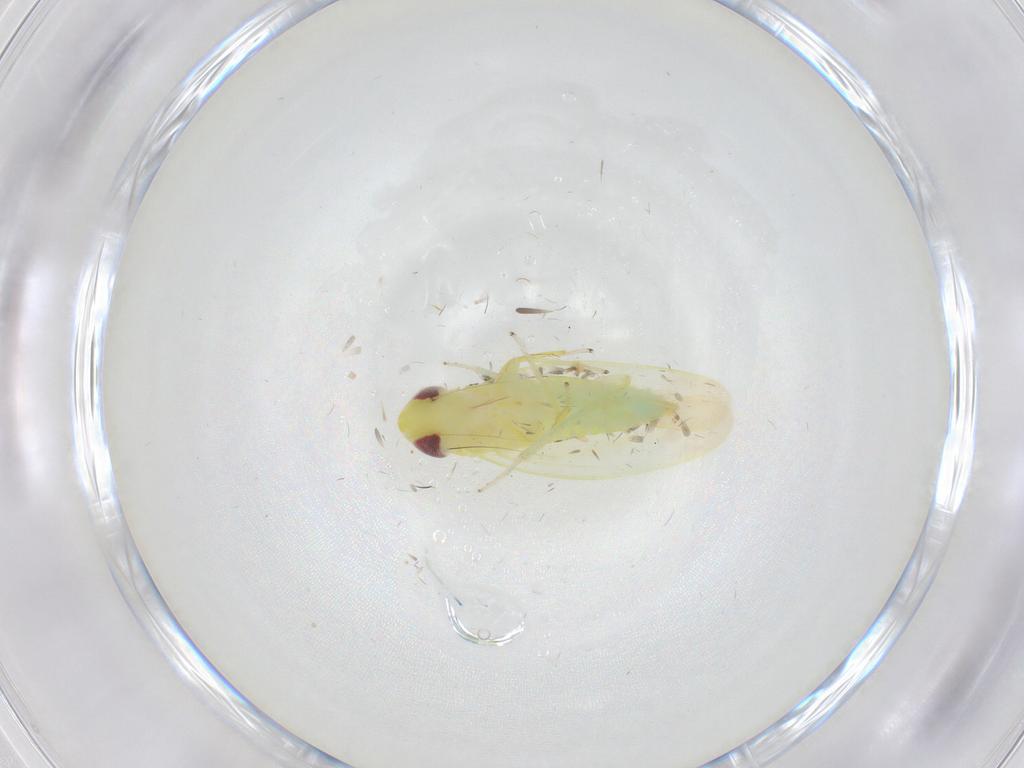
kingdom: Animalia
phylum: Arthropoda
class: Insecta
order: Hemiptera
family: Cicadellidae
